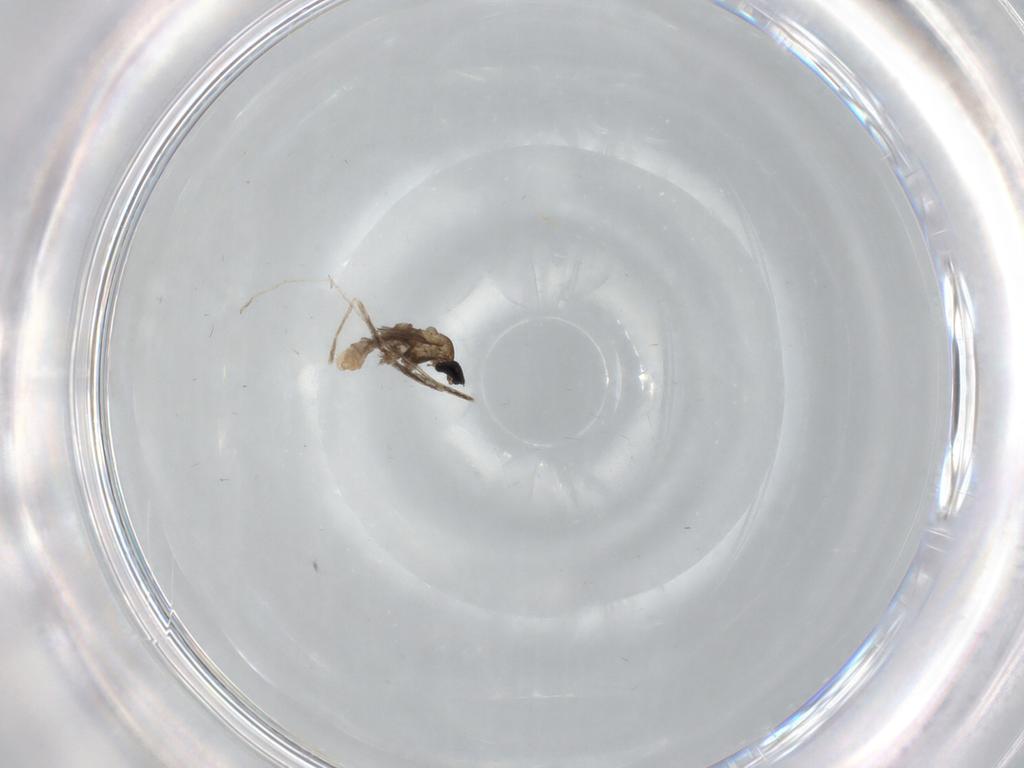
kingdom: Animalia
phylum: Arthropoda
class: Insecta
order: Diptera
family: Cecidomyiidae
